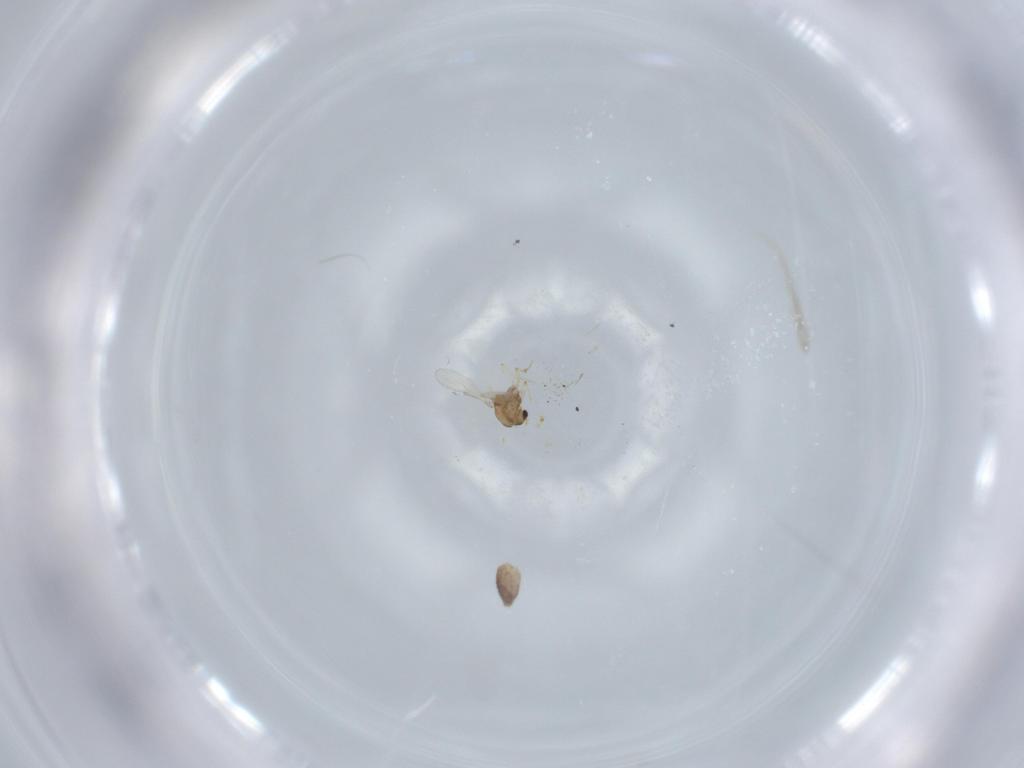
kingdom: Animalia
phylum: Arthropoda
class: Insecta
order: Diptera
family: Chironomidae
